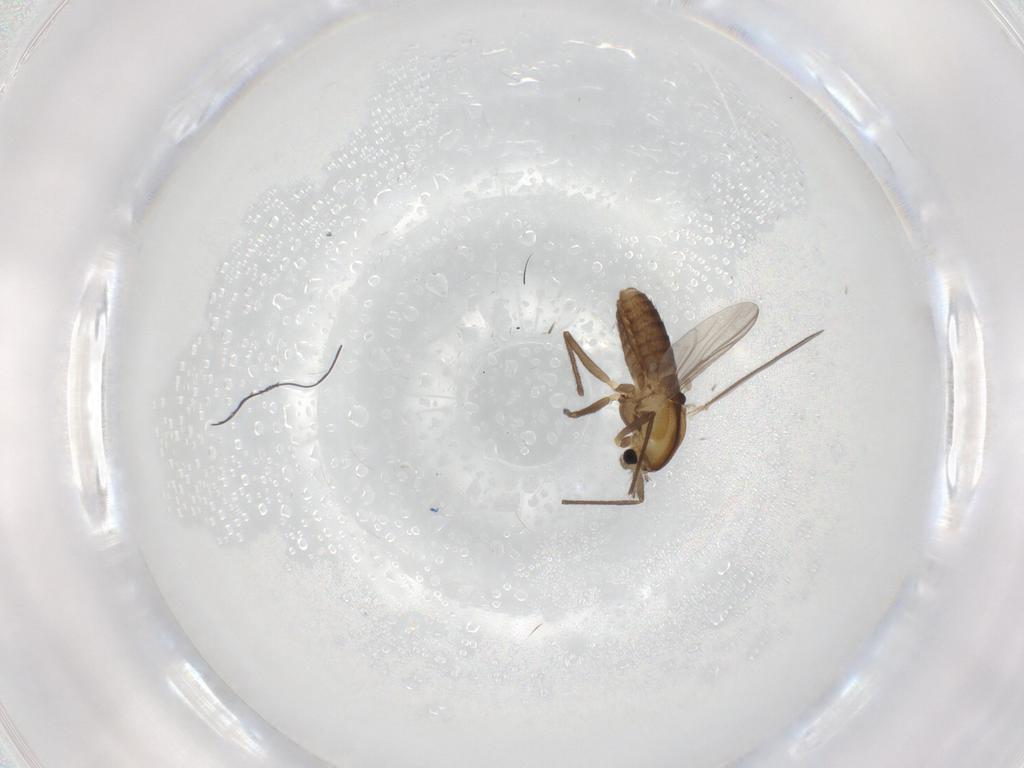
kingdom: Animalia
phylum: Arthropoda
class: Insecta
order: Diptera
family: Chironomidae
